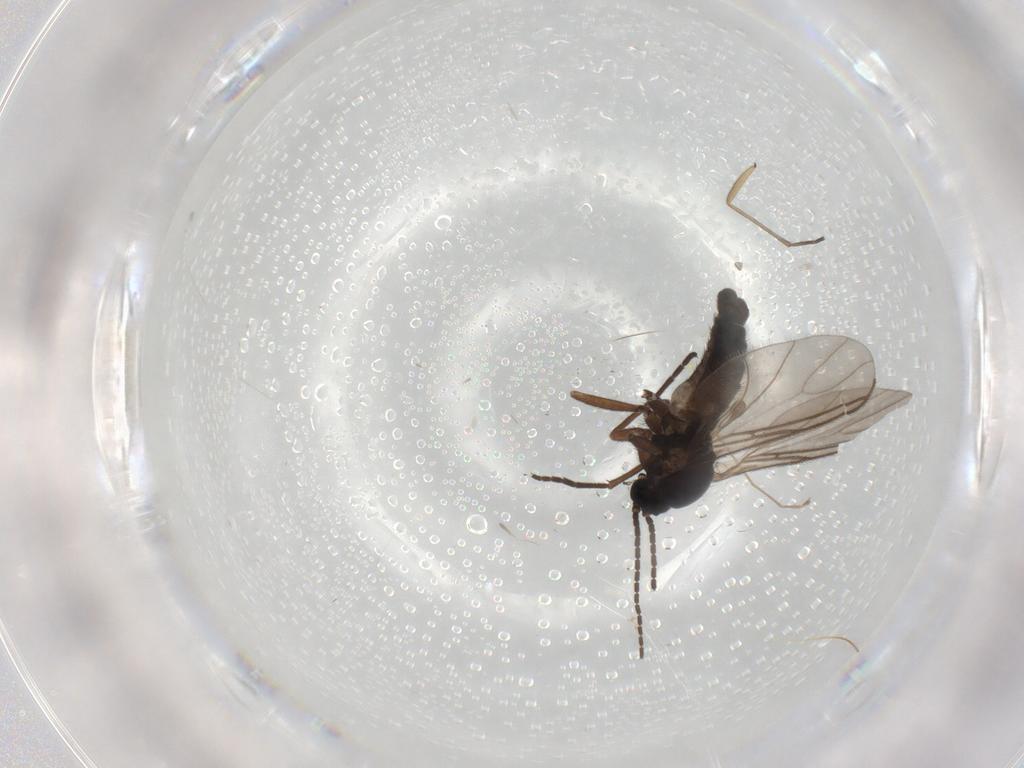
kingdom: Animalia
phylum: Arthropoda
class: Insecta
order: Diptera
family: Sciaridae
